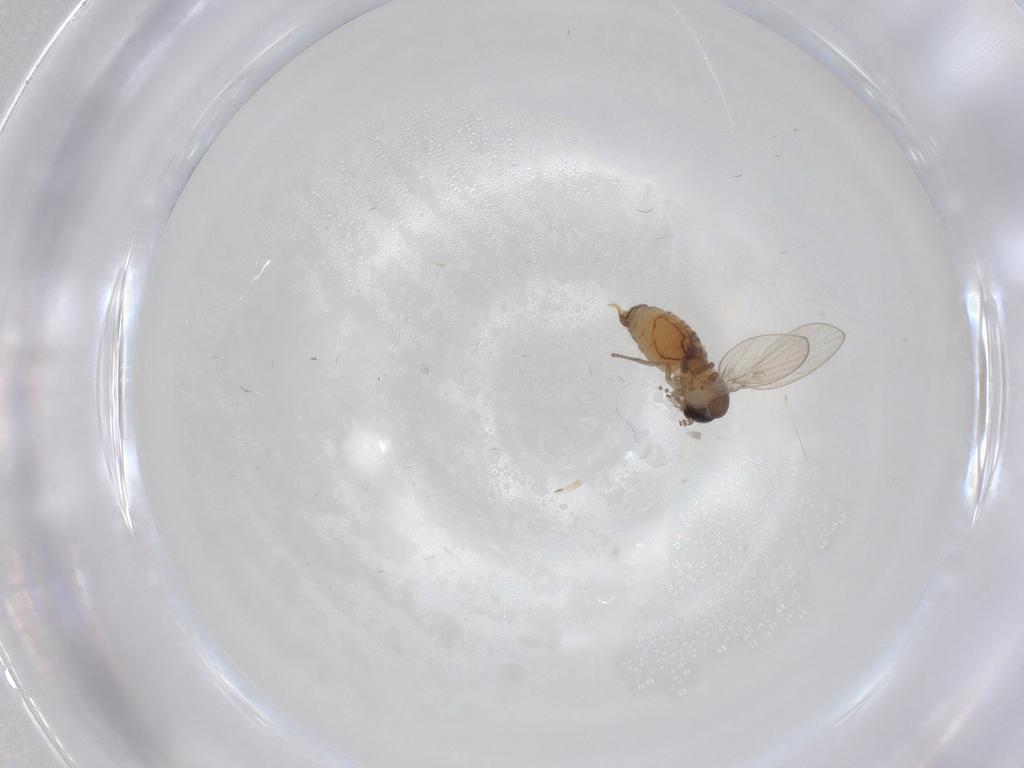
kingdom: Animalia
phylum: Arthropoda
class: Insecta
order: Diptera
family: Psychodidae
